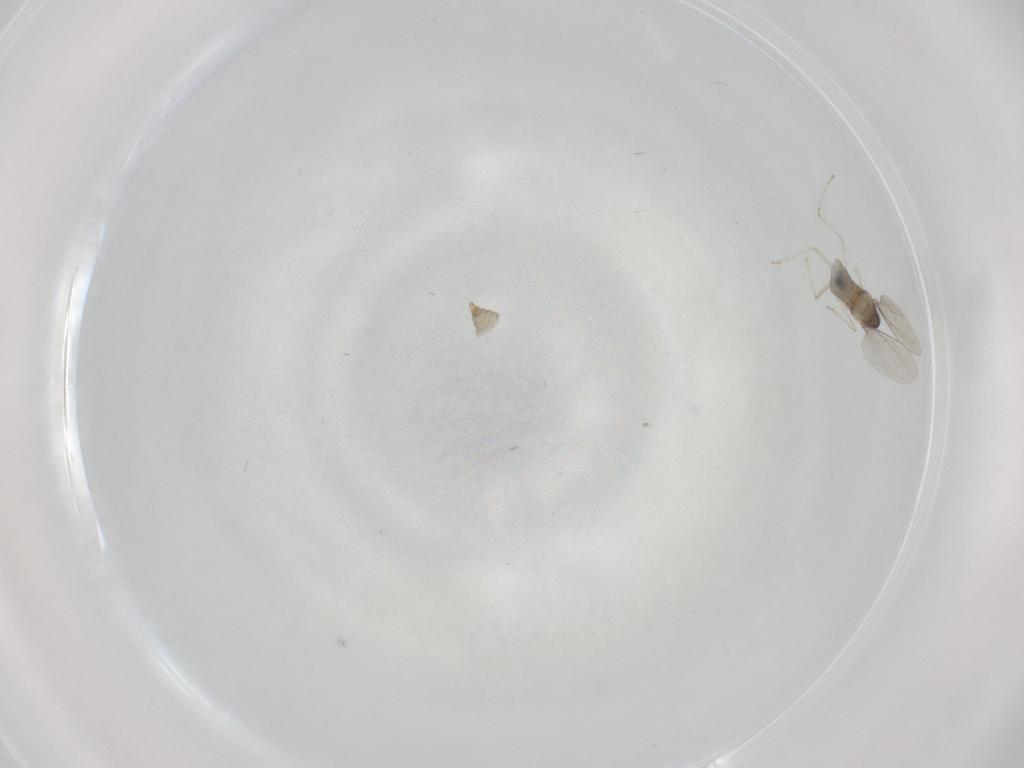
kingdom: Animalia
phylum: Arthropoda
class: Insecta
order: Diptera
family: Cecidomyiidae
